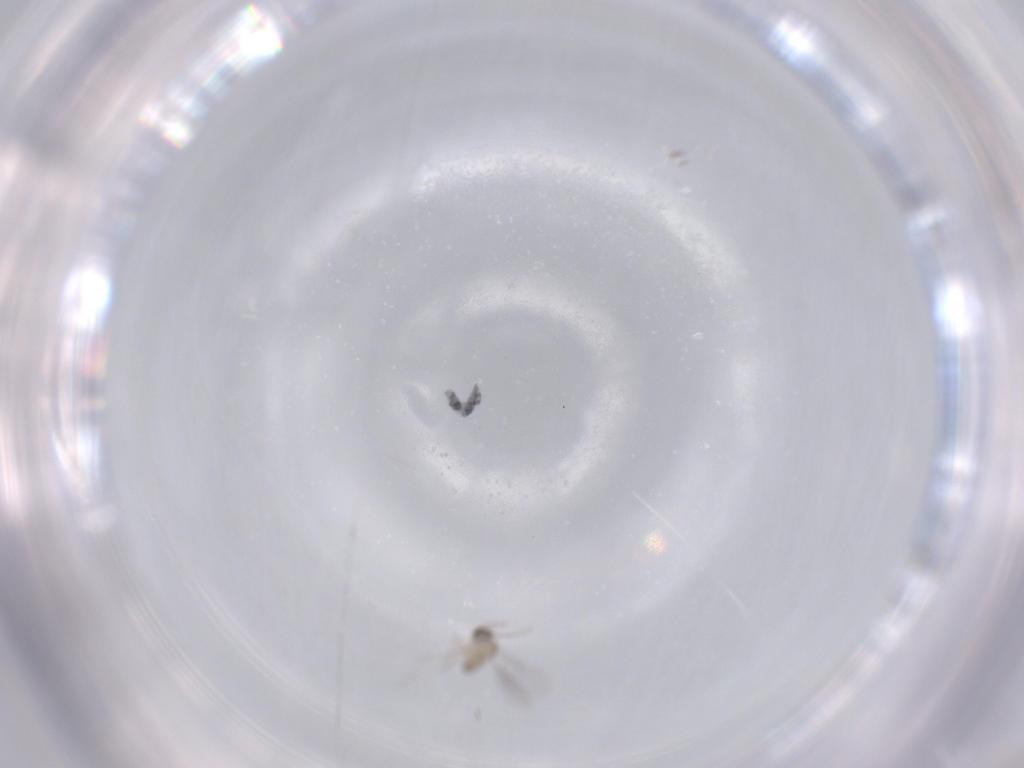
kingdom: Animalia
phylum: Arthropoda
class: Insecta
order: Diptera
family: Cecidomyiidae
